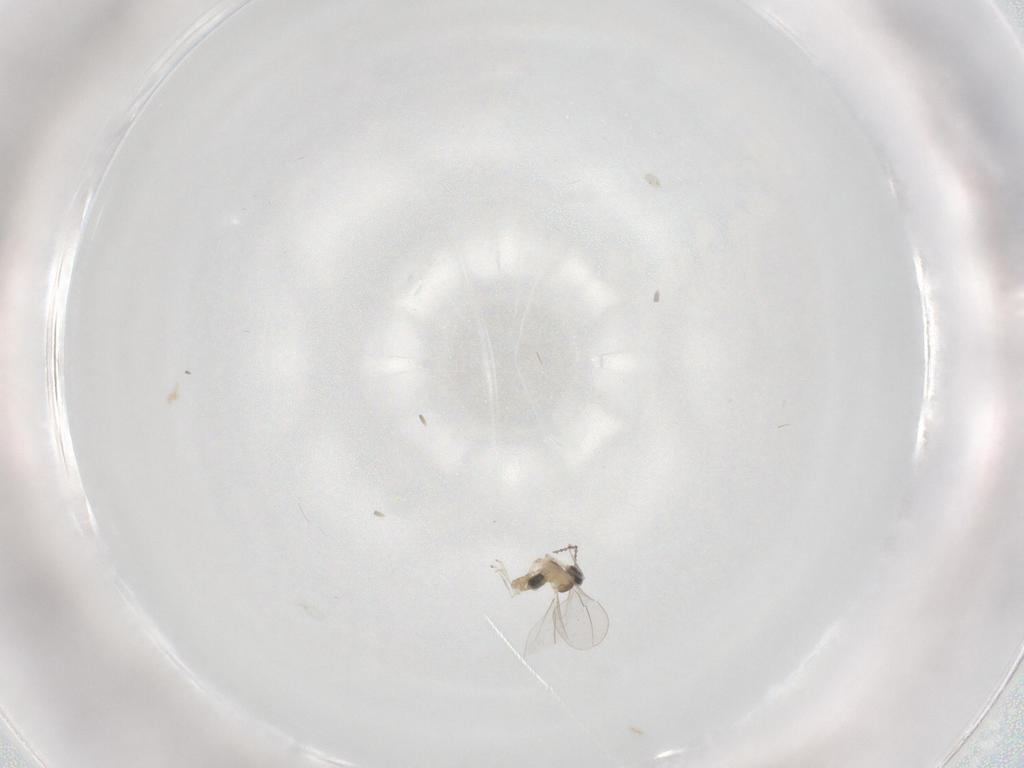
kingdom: Animalia
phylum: Arthropoda
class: Insecta
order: Diptera
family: Cecidomyiidae
